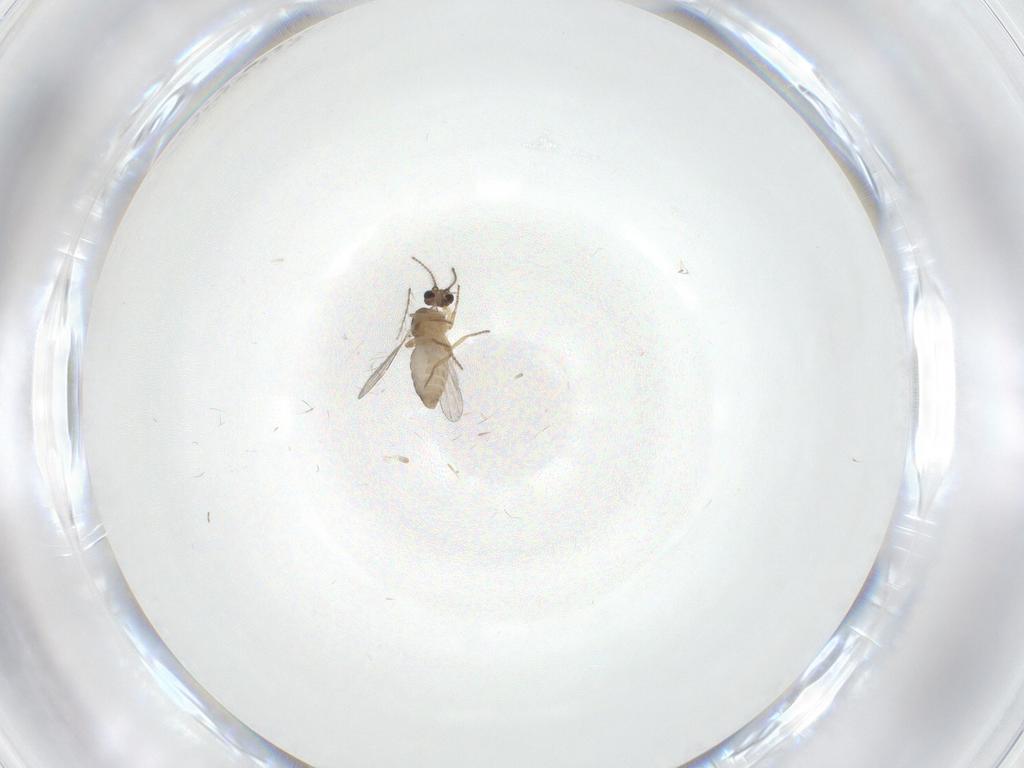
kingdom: Animalia
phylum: Arthropoda
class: Insecta
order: Diptera
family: Ceratopogonidae
